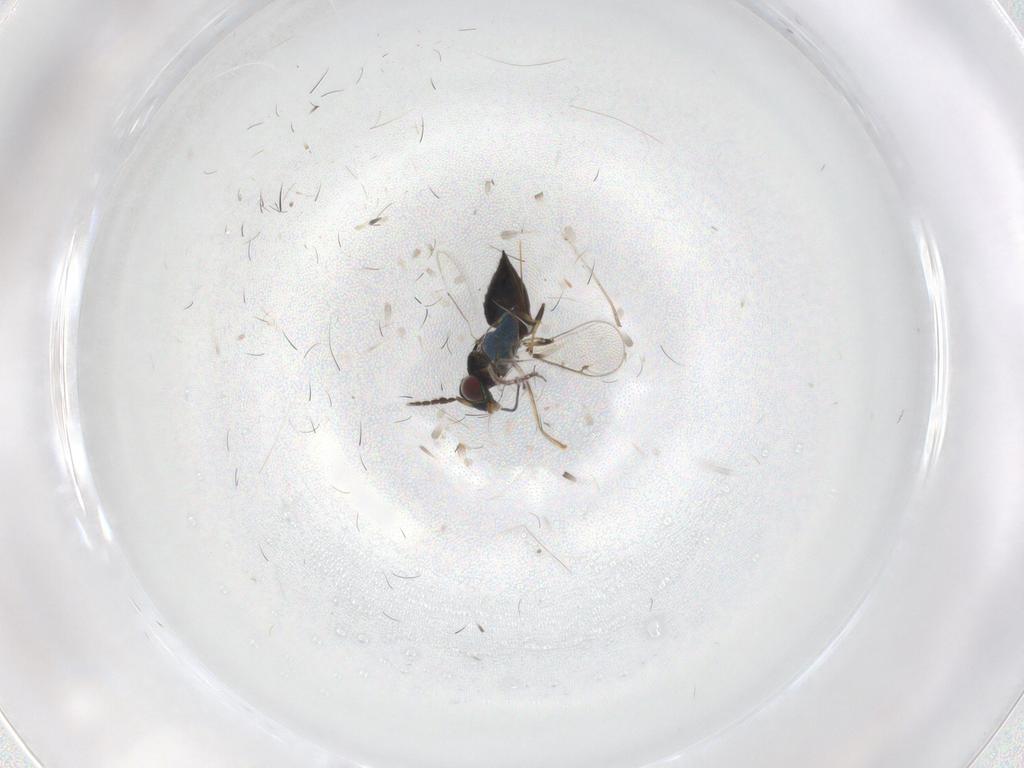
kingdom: Animalia
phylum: Arthropoda
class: Insecta
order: Hymenoptera
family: Eulophidae
